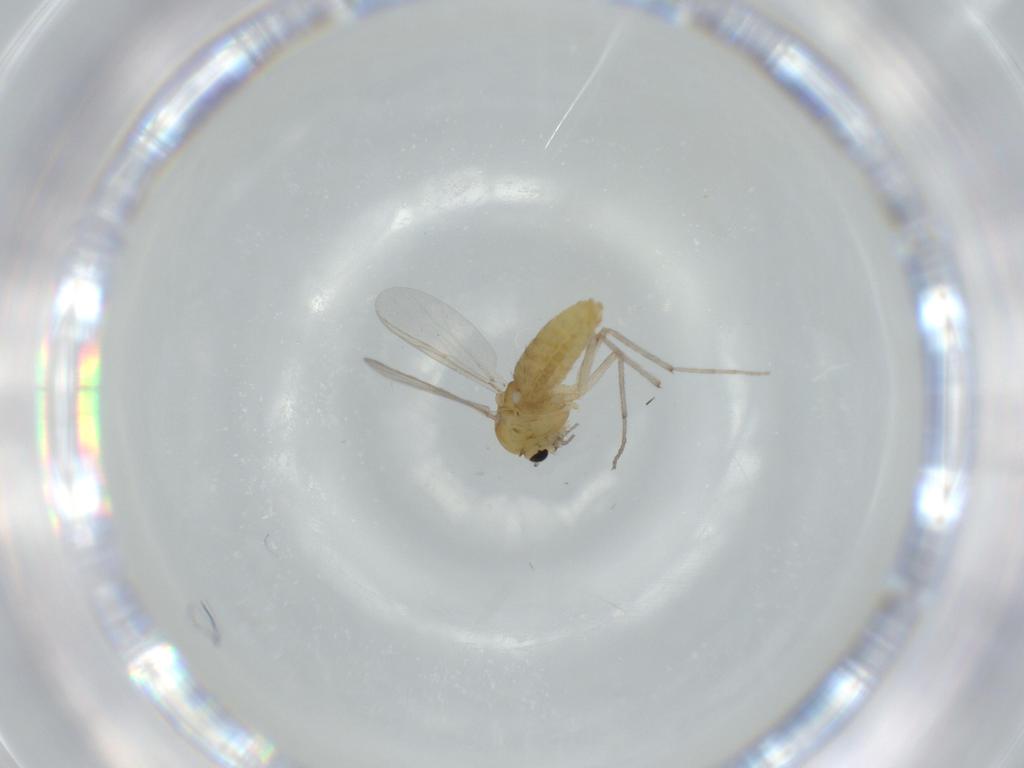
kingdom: Animalia
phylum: Arthropoda
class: Insecta
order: Diptera
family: Chironomidae
